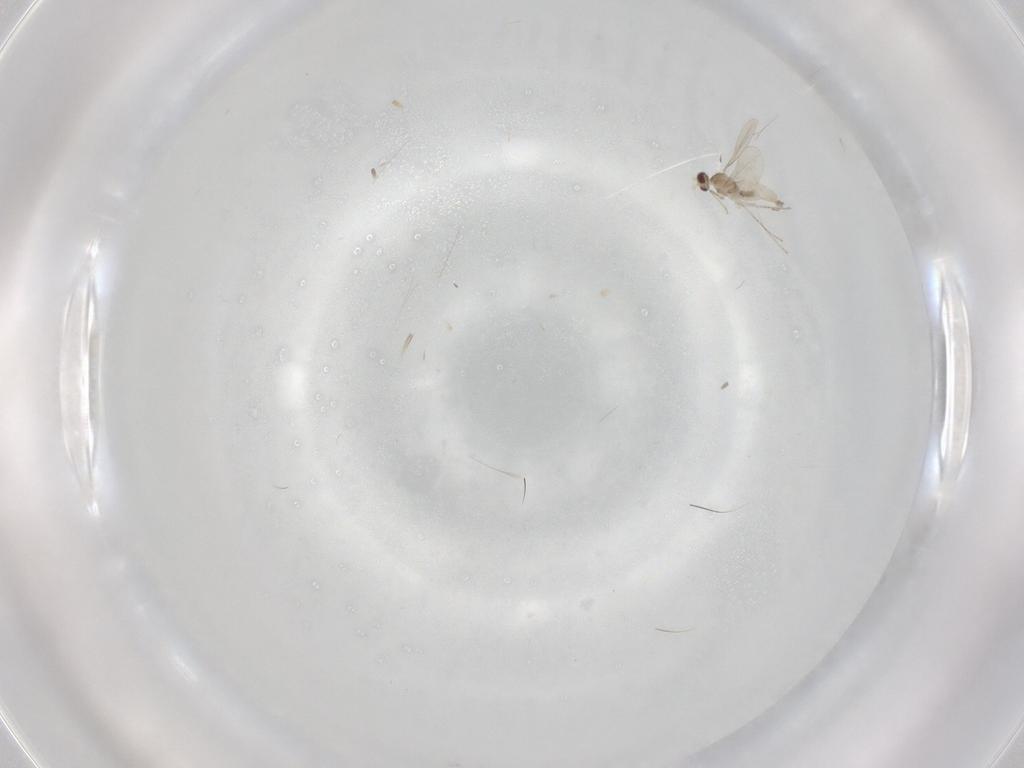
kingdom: Animalia
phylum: Arthropoda
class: Insecta
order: Diptera
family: Cecidomyiidae
